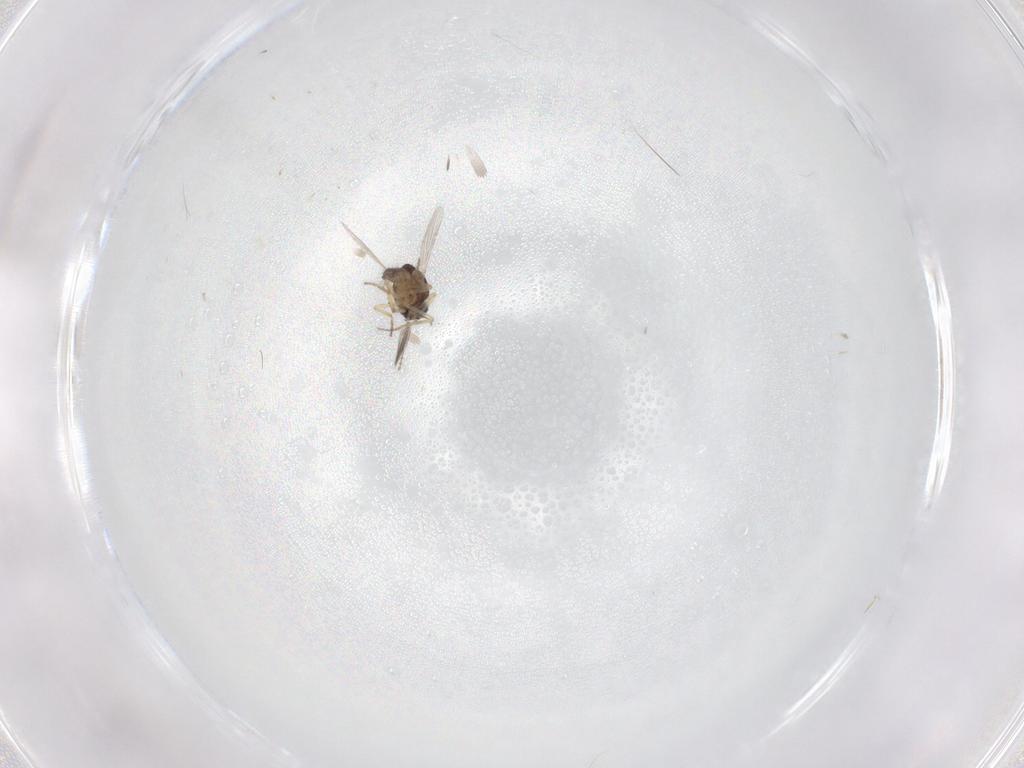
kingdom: Animalia
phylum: Arthropoda
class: Insecta
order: Diptera
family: Ceratopogonidae
